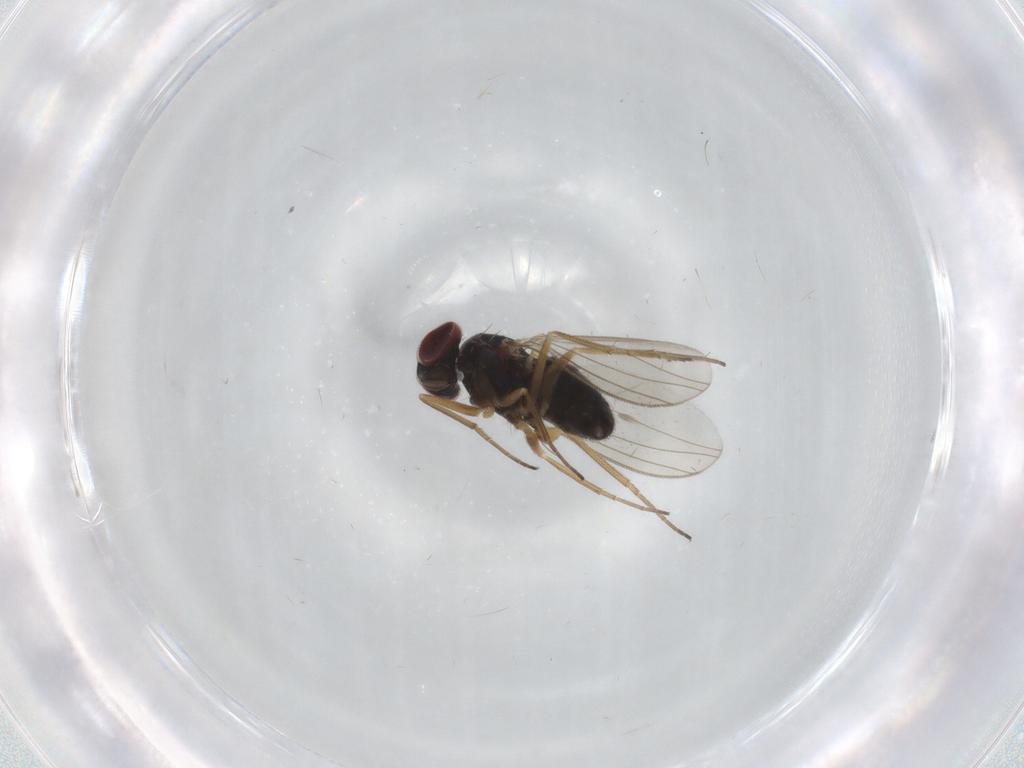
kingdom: Animalia
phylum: Arthropoda
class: Insecta
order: Diptera
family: Cecidomyiidae
